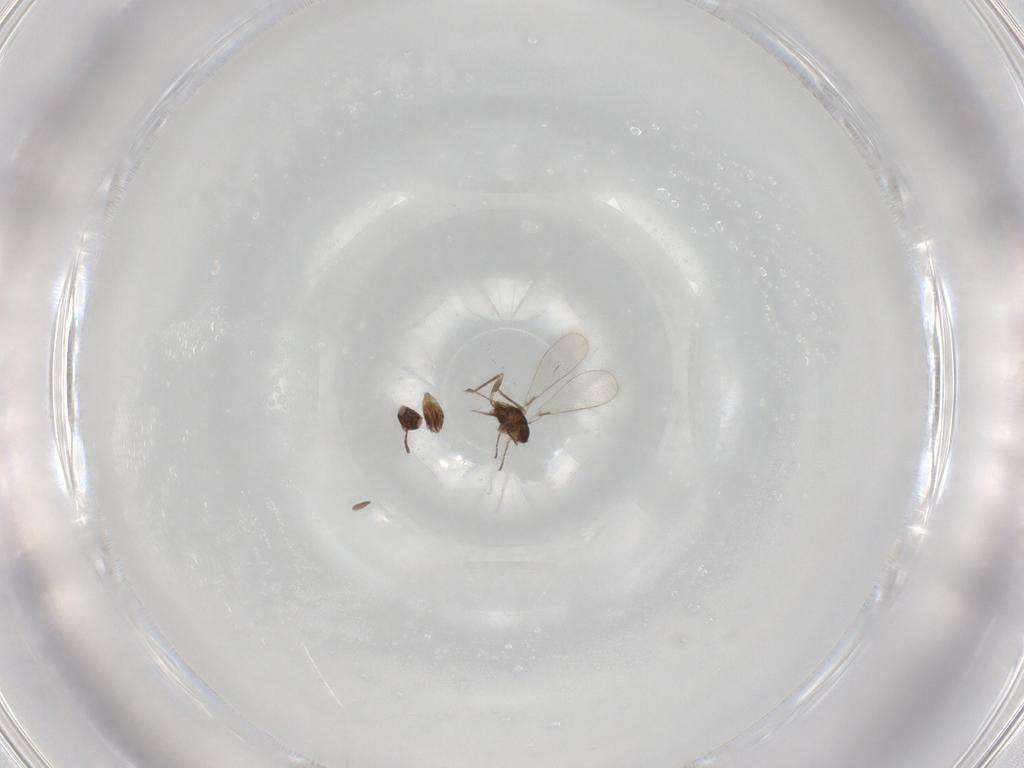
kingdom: Animalia
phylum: Arthropoda
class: Insecta
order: Hymenoptera
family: Mymaridae
